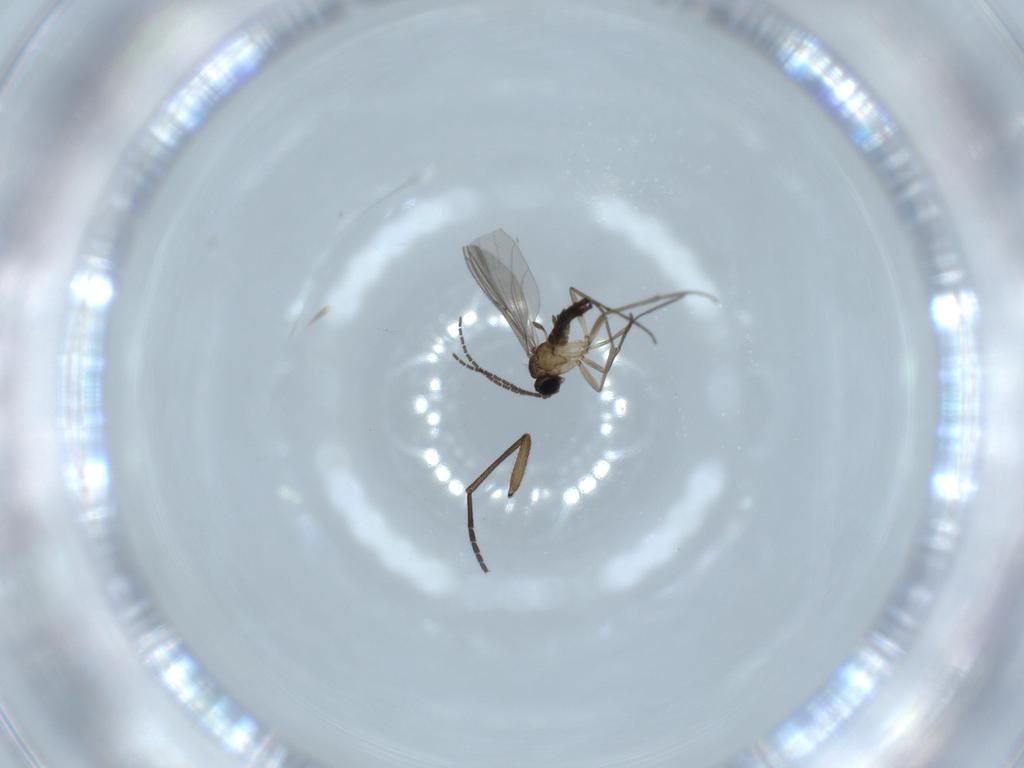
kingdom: Animalia
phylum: Arthropoda
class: Insecta
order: Diptera
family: Sciaridae
